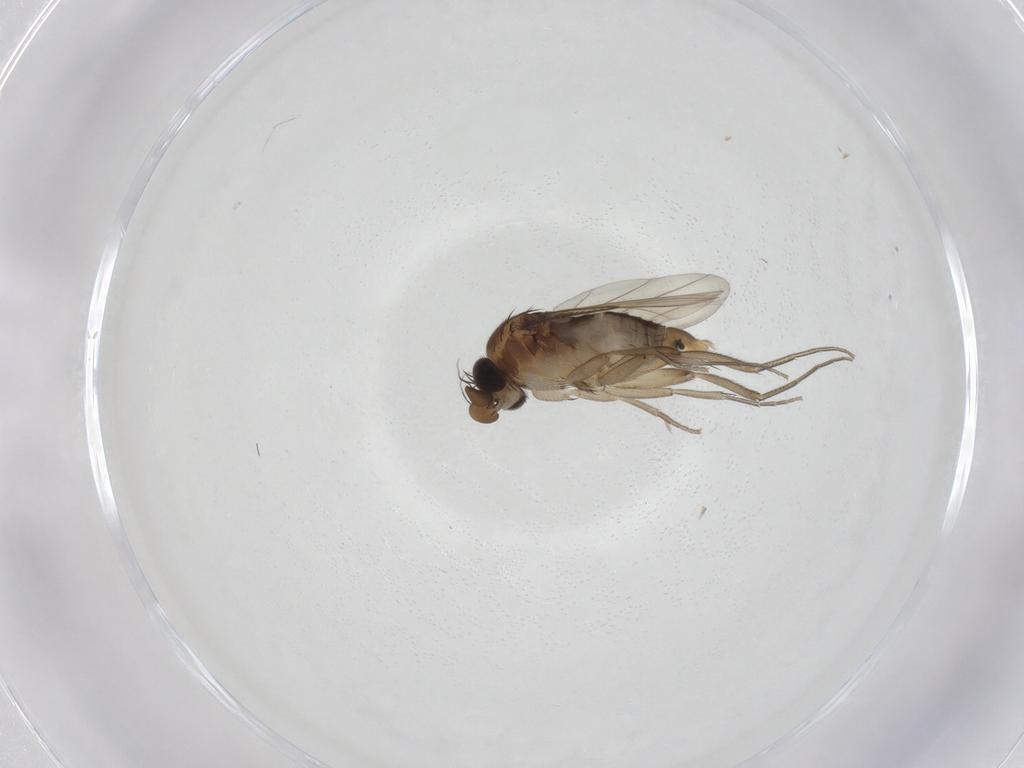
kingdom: Animalia
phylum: Arthropoda
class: Insecta
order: Diptera
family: Phoridae
